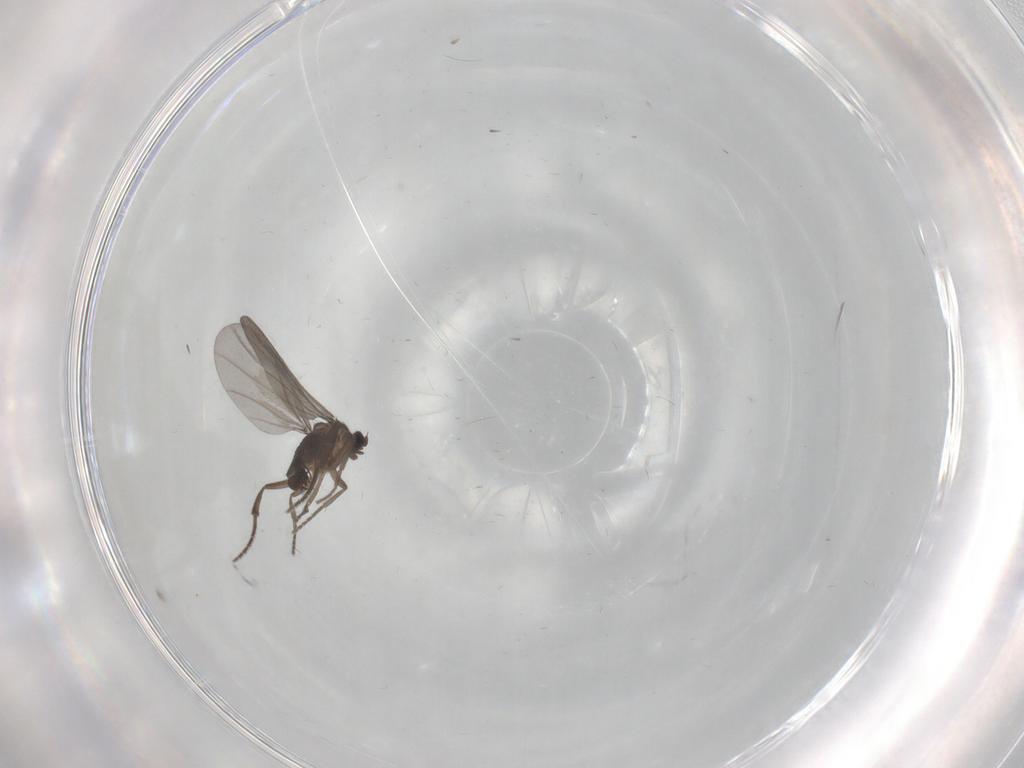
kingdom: Animalia
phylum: Arthropoda
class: Insecta
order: Diptera
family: Phoridae
